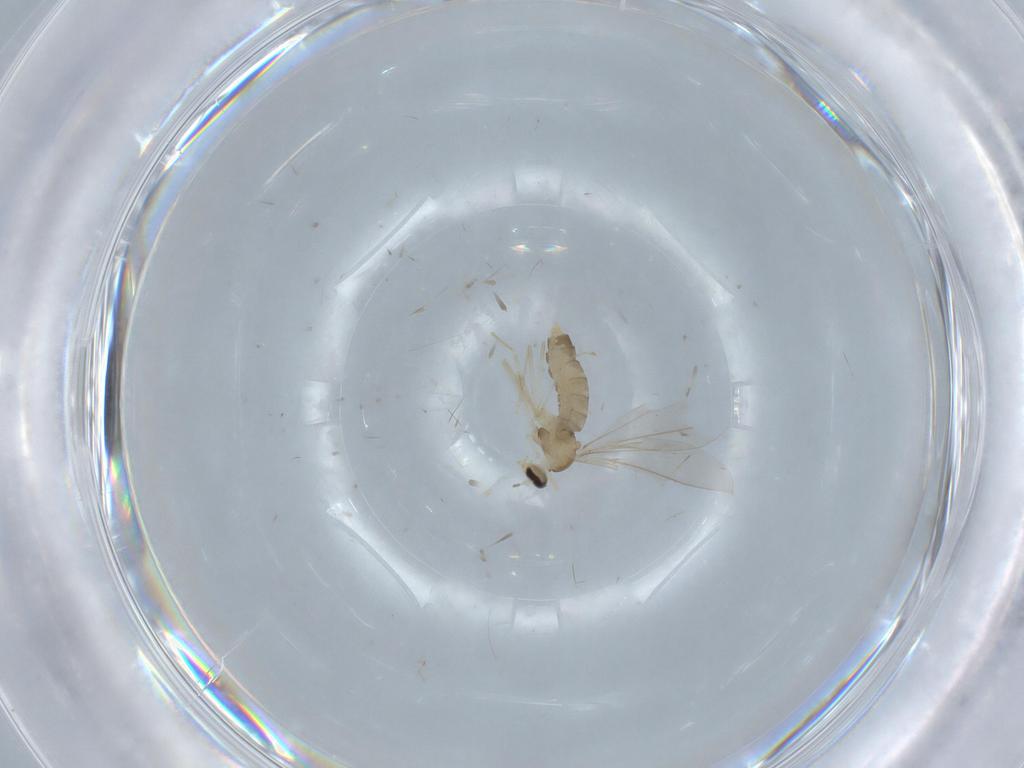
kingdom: Animalia
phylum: Arthropoda
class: Insecta
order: Diptera
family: Cecidomyiidae
